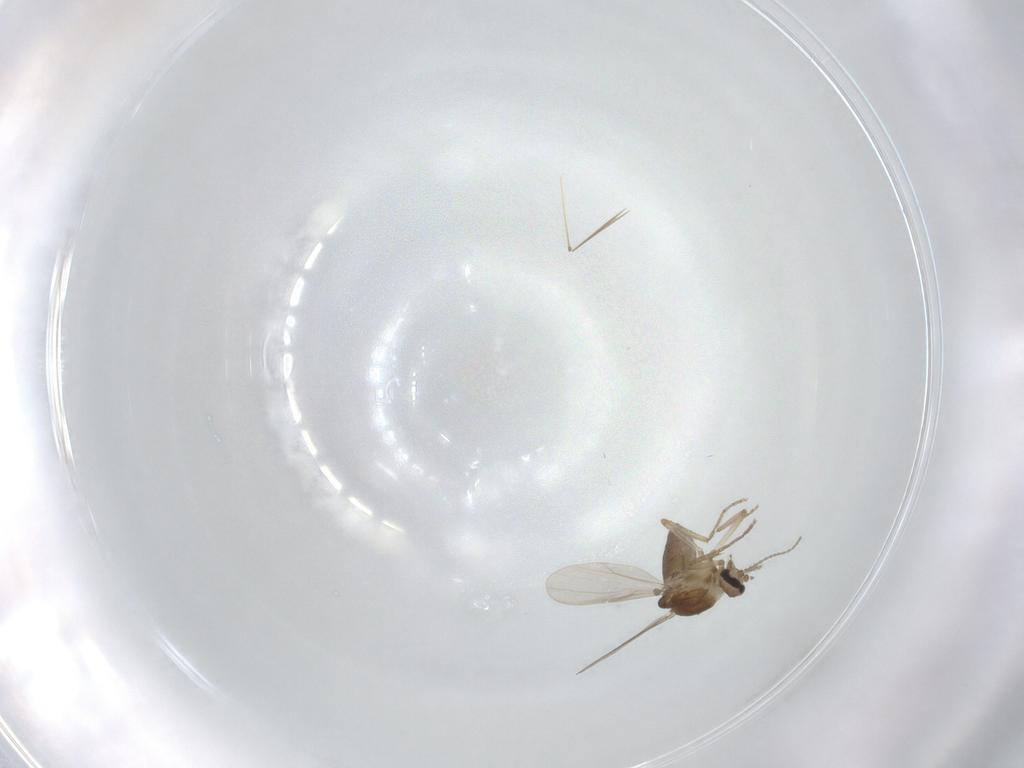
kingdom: Animalia
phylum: Arthropoda
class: Insecta
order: Diptera
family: Ceratopogonidae
